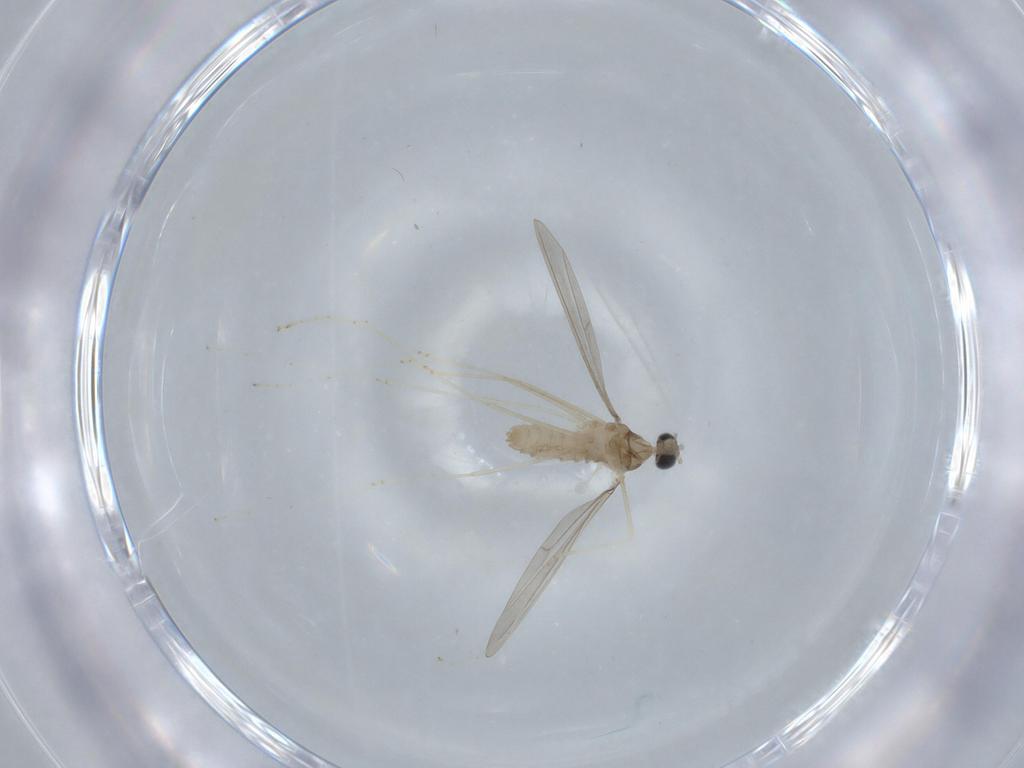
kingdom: Animalia
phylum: Arthropoda
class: Insecta
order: Diptera
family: Cecidomyiidae
